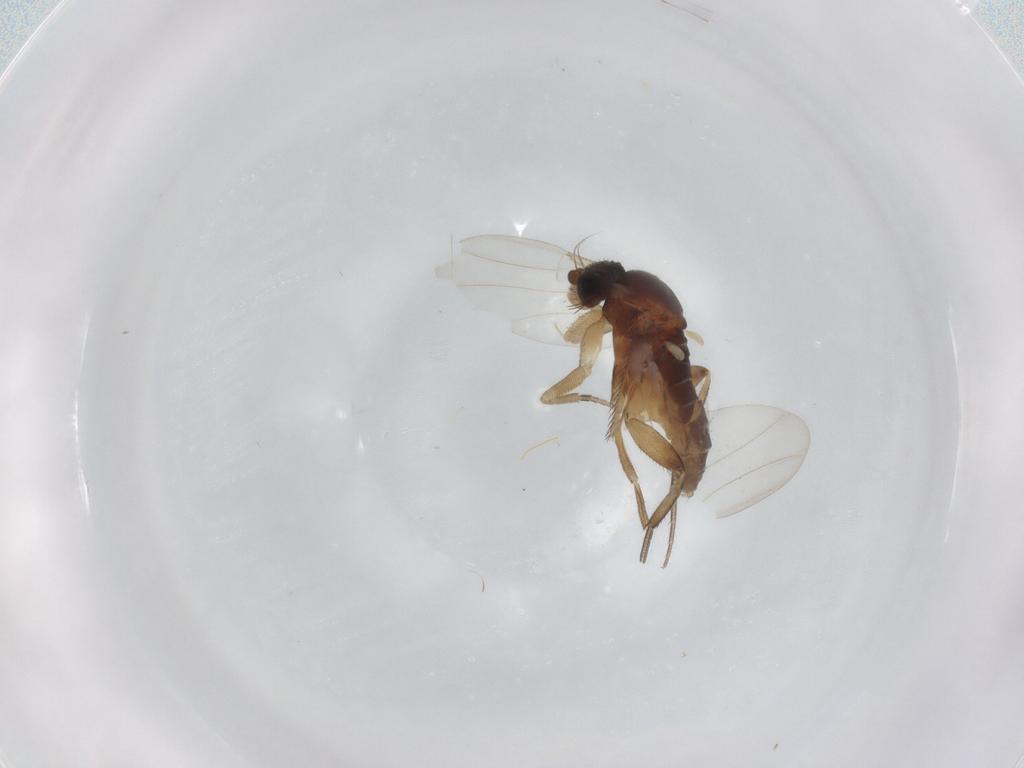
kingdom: Animalia
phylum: Arthropoda
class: Insecta
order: Diptera
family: Phoridae
